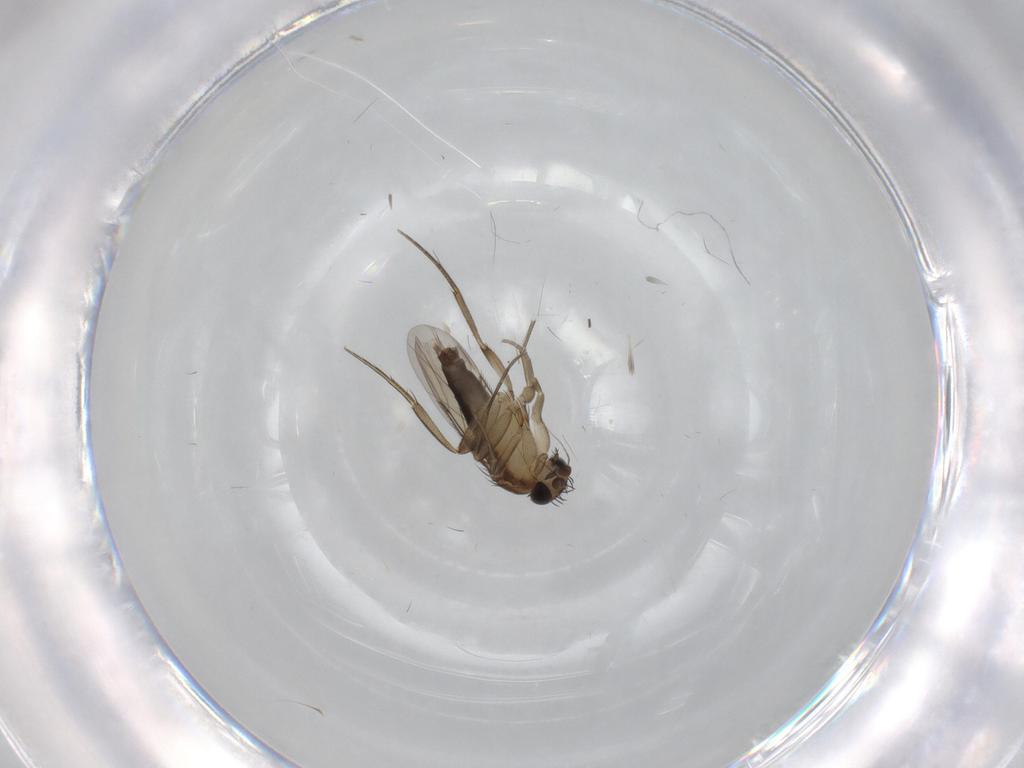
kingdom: Animalia
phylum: Arthropoda
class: Insecta
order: Diptera
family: Phoridae
